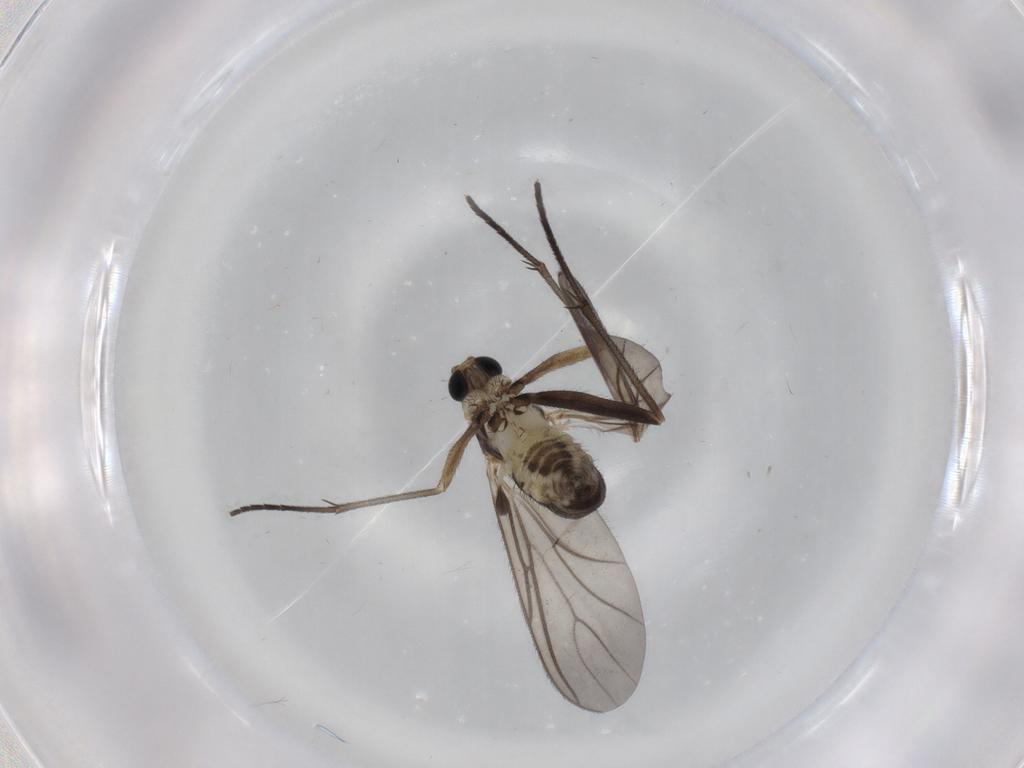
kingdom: Animalia
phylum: Arthropoda
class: Insecta
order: Diptera
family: Sciaridae
